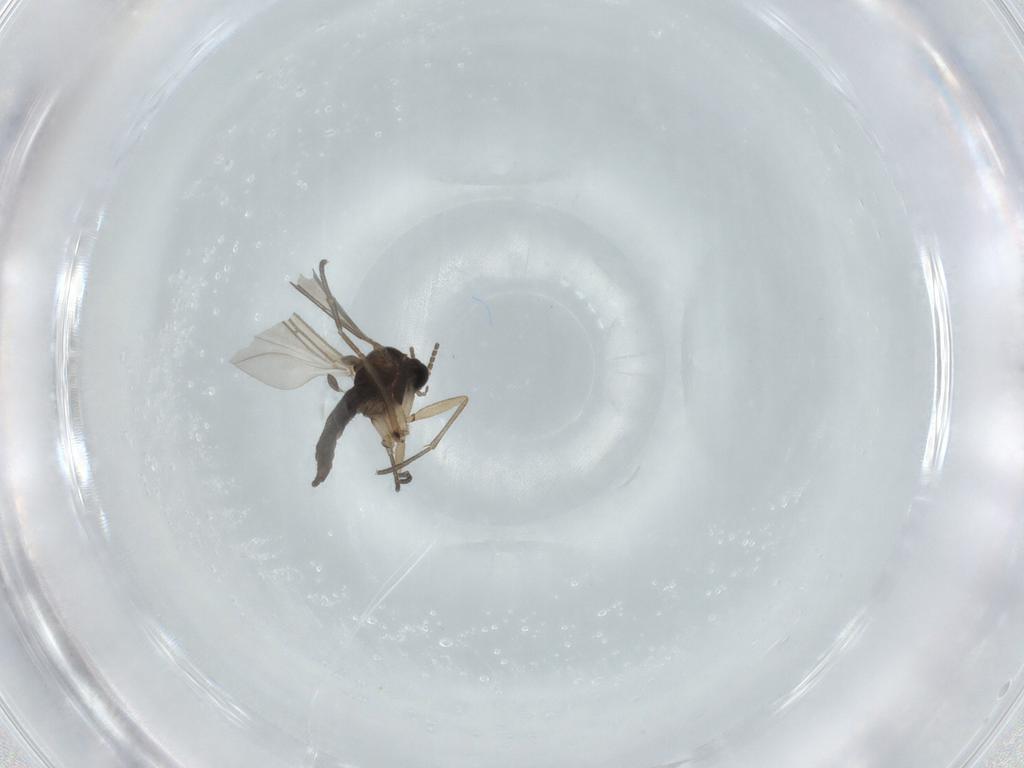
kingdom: Animalia
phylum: Arthropoda
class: Insecta
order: Diptera
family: Sciaridae
